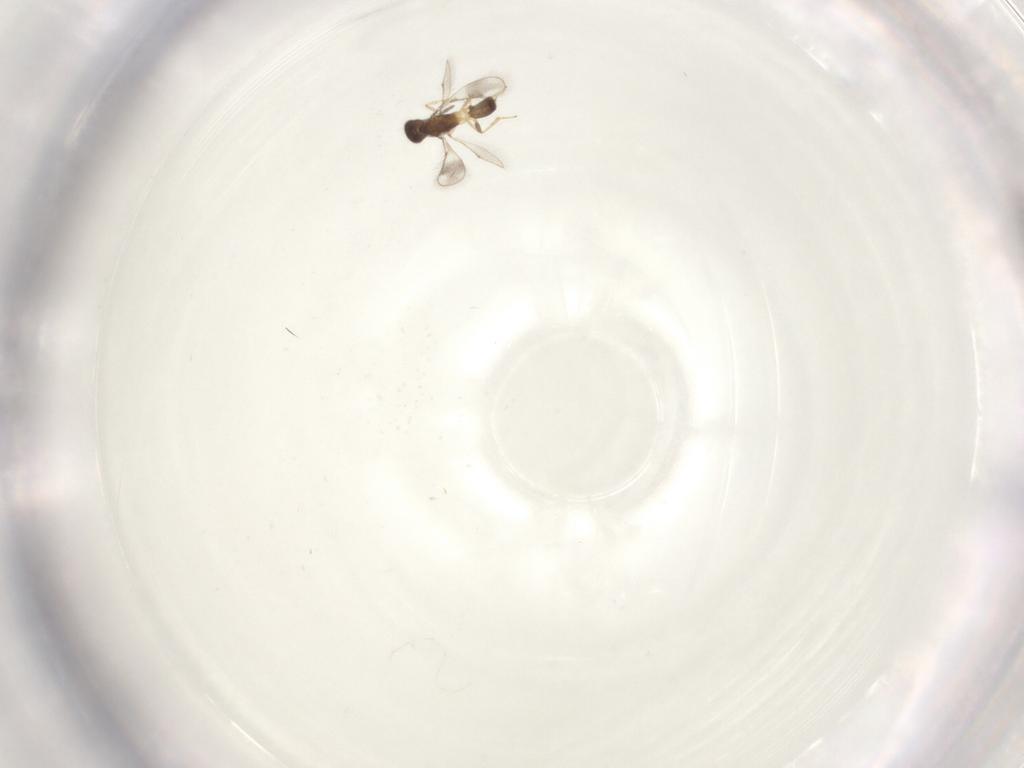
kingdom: Animalia
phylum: Arthropoda
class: Insecta
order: Hymenoptera
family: Pteromalidae
